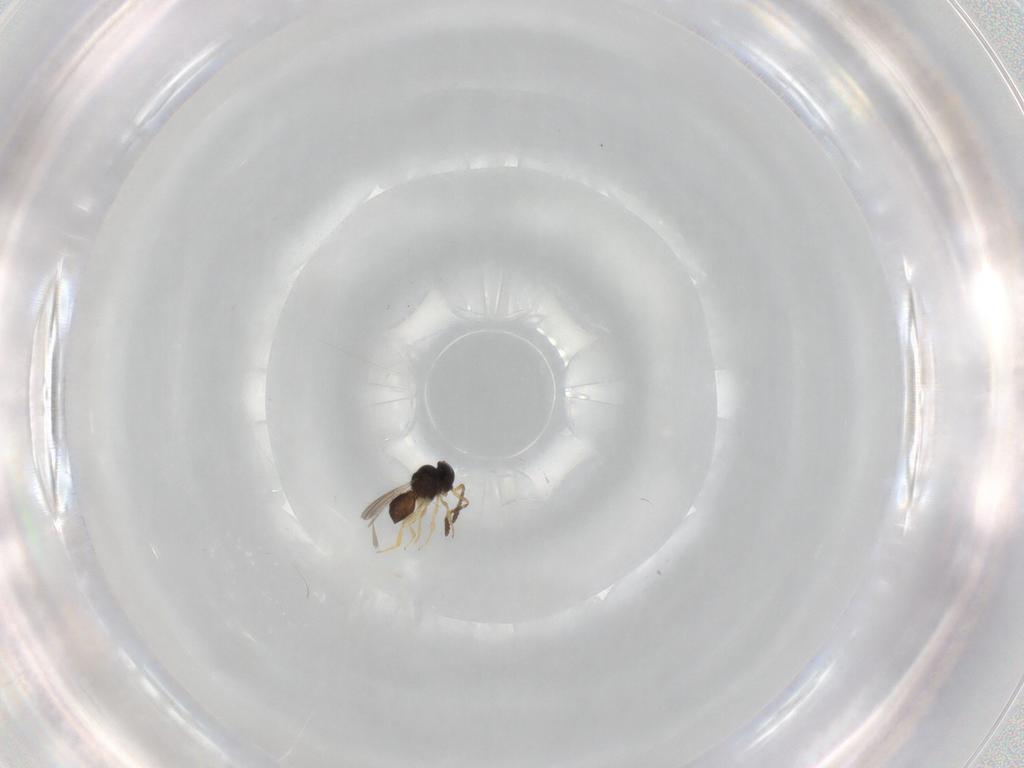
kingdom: Animalia
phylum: Arthropoda
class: Insecta
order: Hymenoptera
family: Scelionidae
